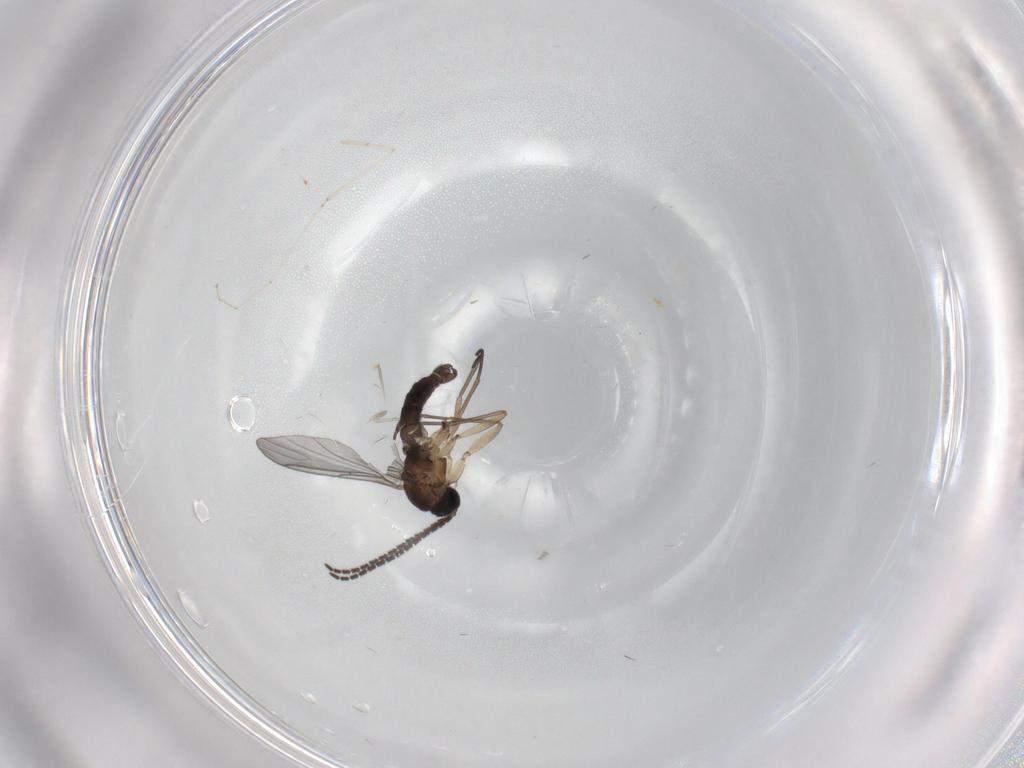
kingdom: Animalia
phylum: Arthropoda
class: Insecta
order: Diptera
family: Sciaridae
